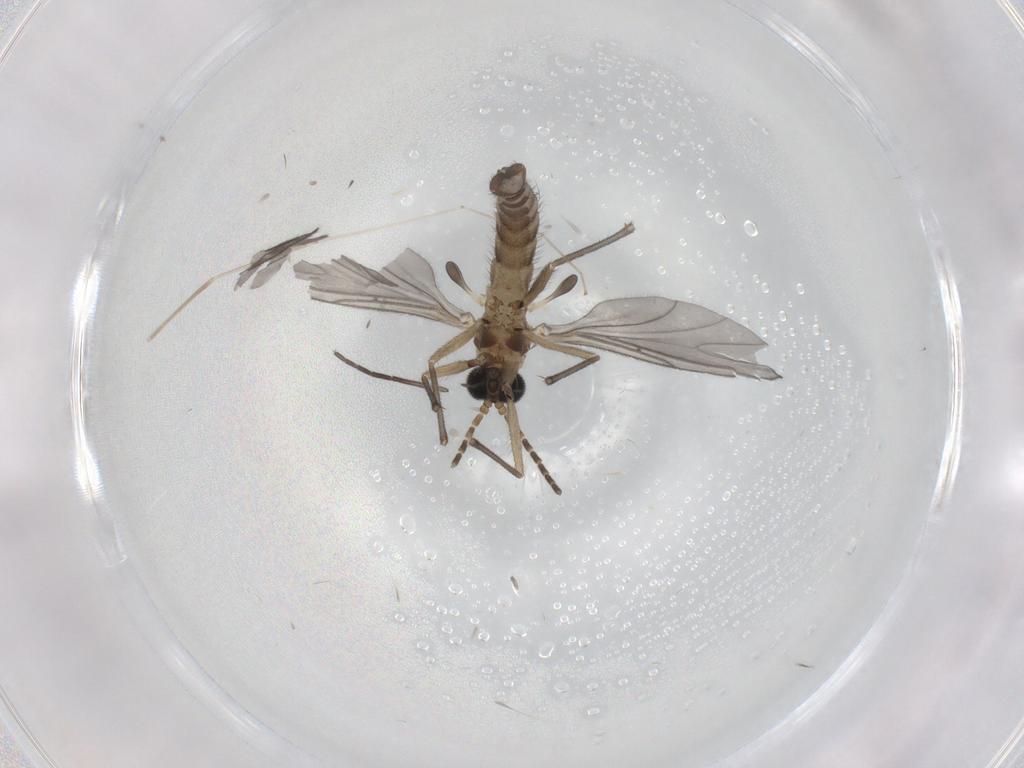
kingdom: Animalia
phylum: Arthropoda
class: Insecta
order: Diptera
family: Sciaridae
